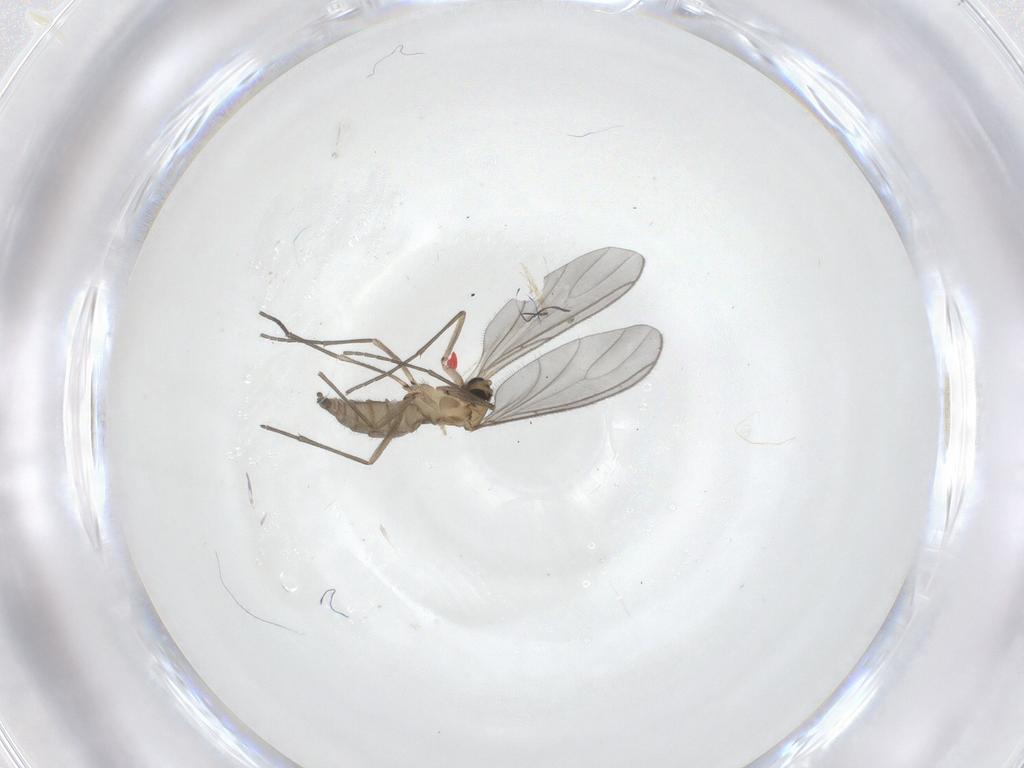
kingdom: Animalia
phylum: Arthropoda
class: Insecta
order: Diptera
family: Sciaridae
